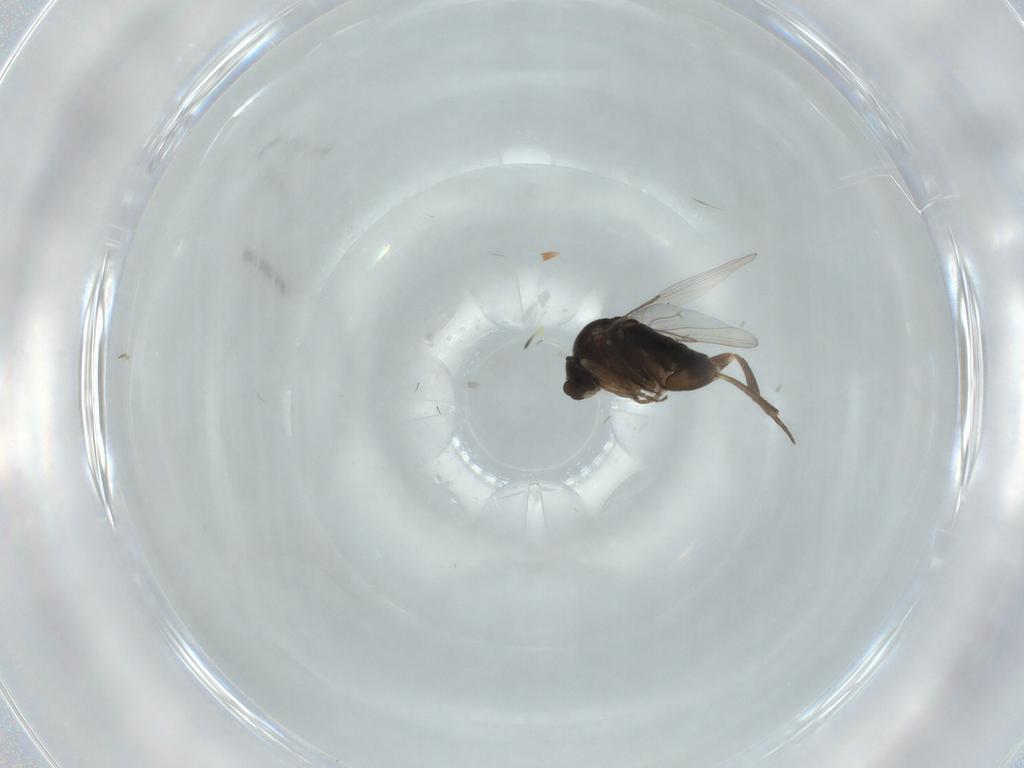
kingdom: Animalia
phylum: Arthropoda
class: Insecta
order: Diptera
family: Phoridae
